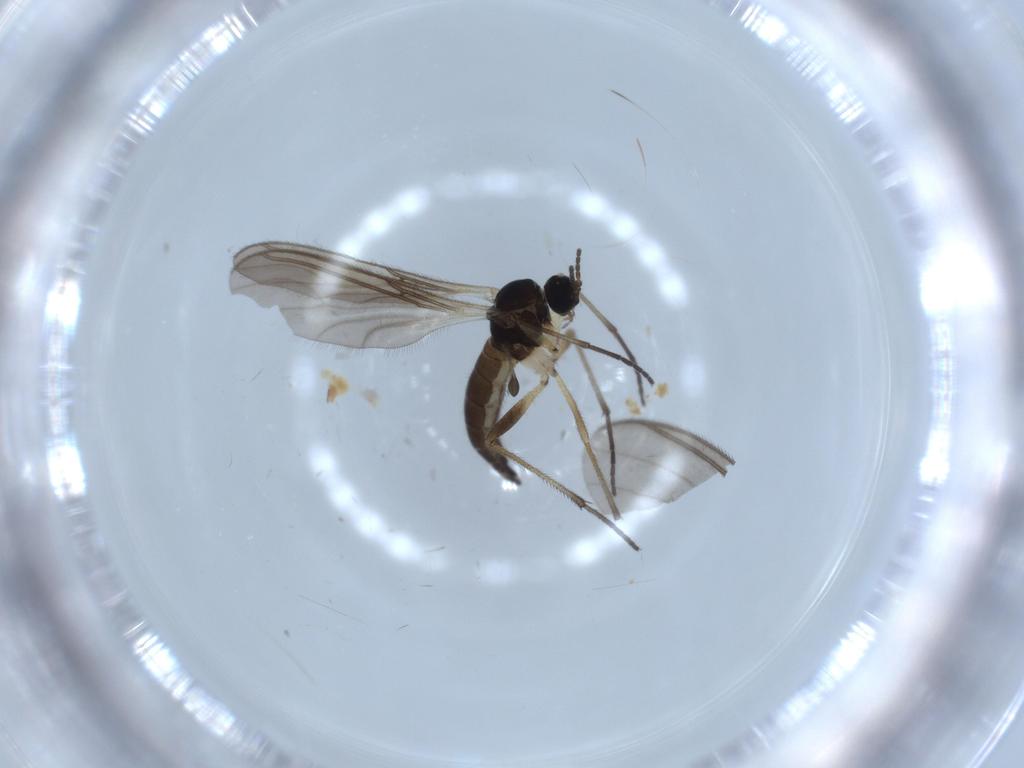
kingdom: Animalia
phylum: Arthropoda
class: Insecta
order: Diptera
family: Sciaridae
